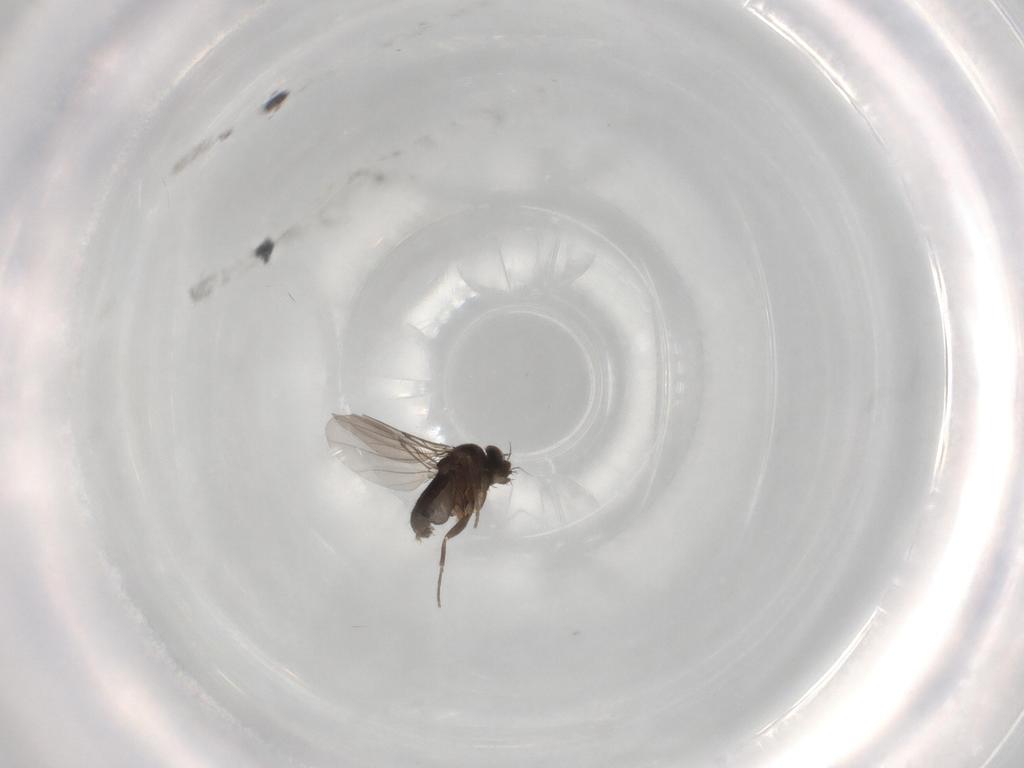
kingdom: Animalia
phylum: Arthropoda
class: Insecta
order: Diptera
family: Phoridae
